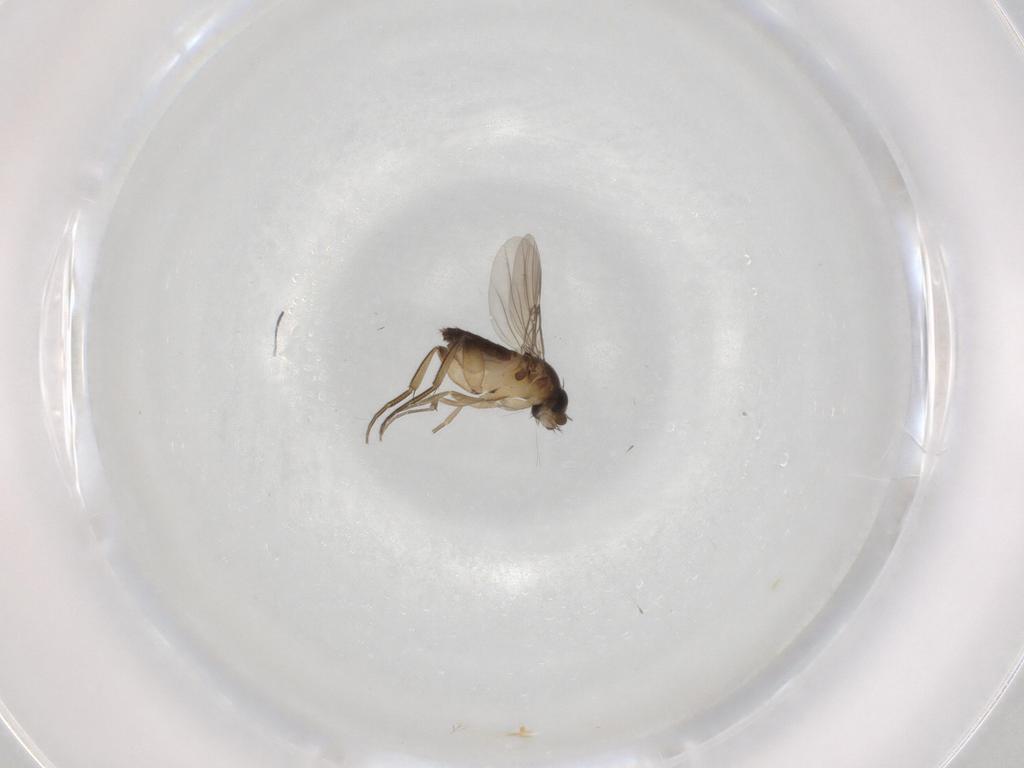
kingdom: Animalia
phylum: Arthropoda
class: Insecta
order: Diptera
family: Phoridae
